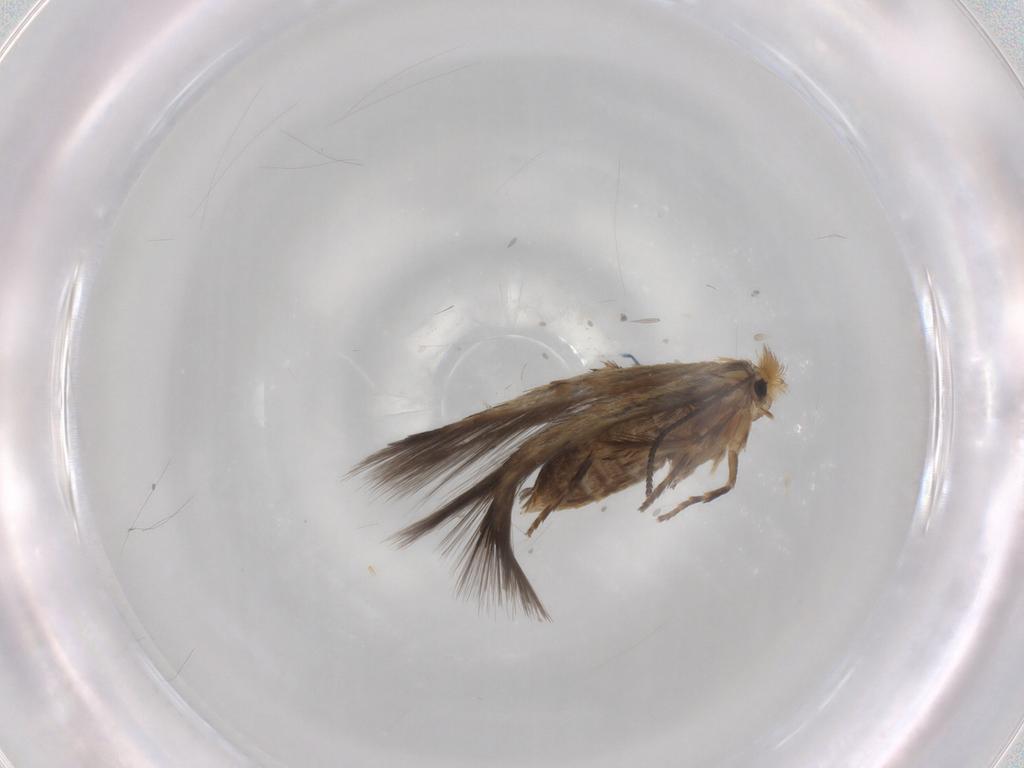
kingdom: Animalia
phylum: Arthropoda
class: Insecta
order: Lepidoptera
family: Nepticulidae
